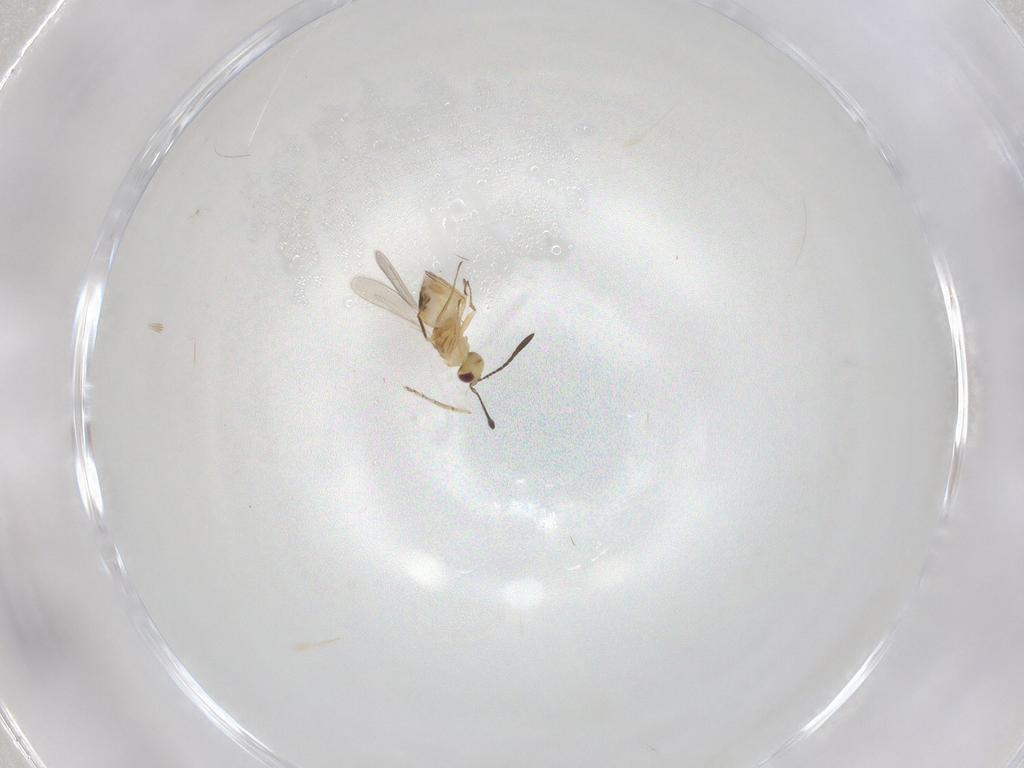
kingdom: Animalia
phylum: Arthropoda
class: Insecta
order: Hymenoptera
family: Mymaridae
